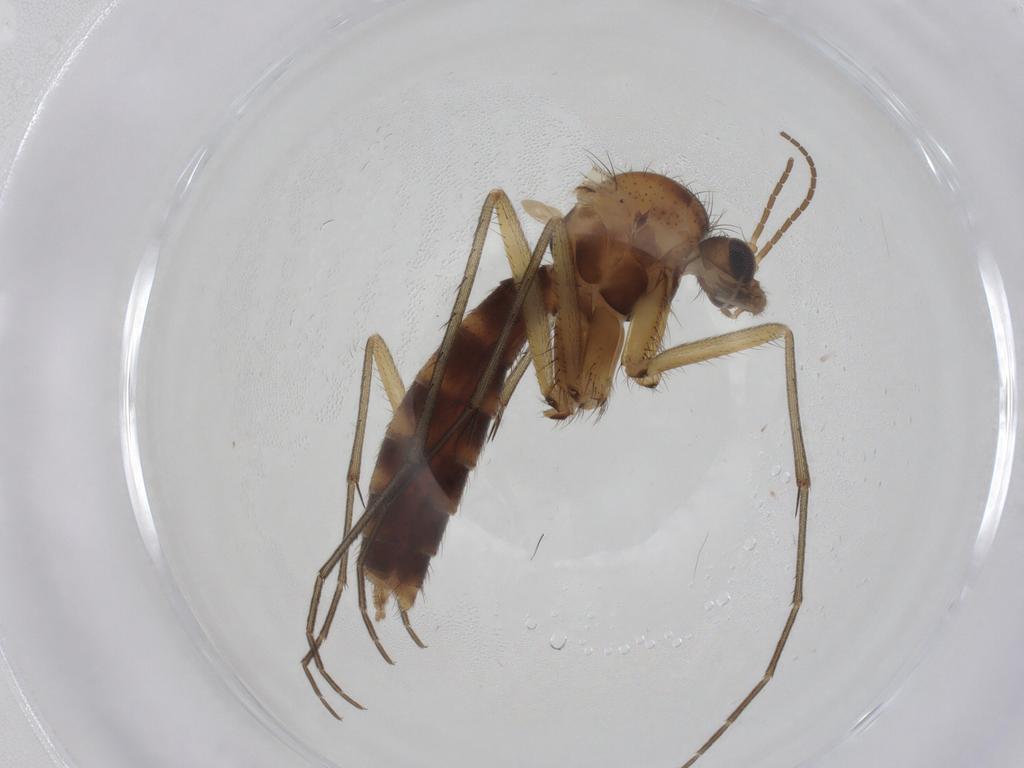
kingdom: Animalia
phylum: Arthropoda
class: Insecta
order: Diptera
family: Mycetophilidae
